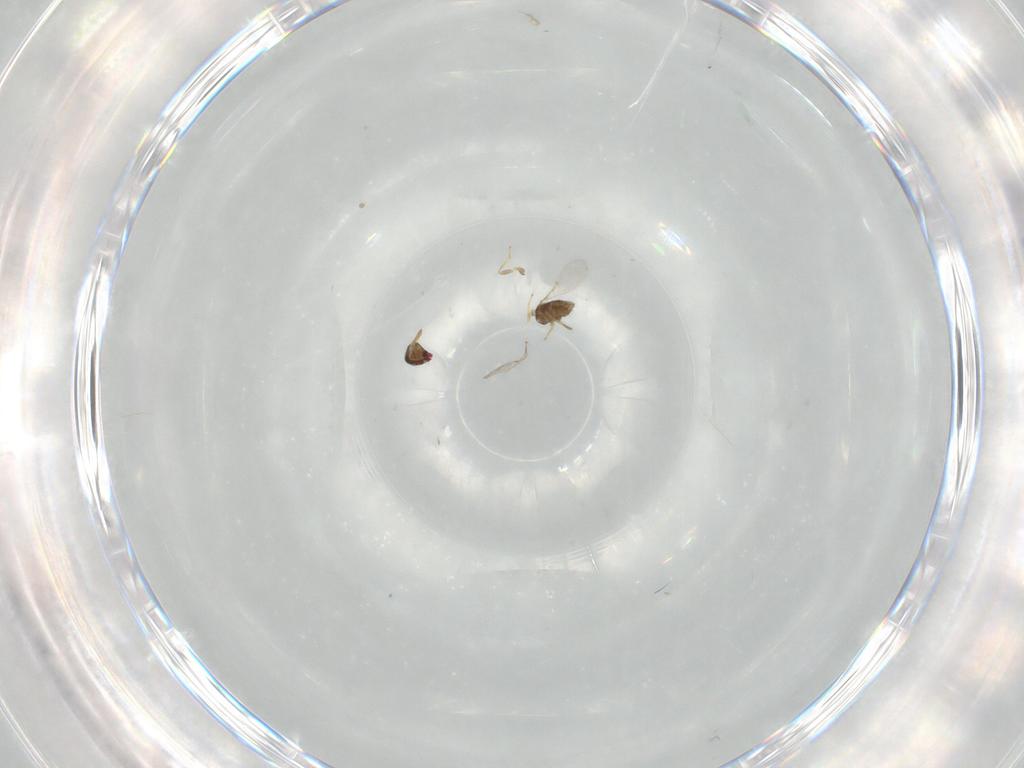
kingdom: Animalia
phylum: Arthropoda
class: Insecta
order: Hymenoptera
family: Encyrtidae
